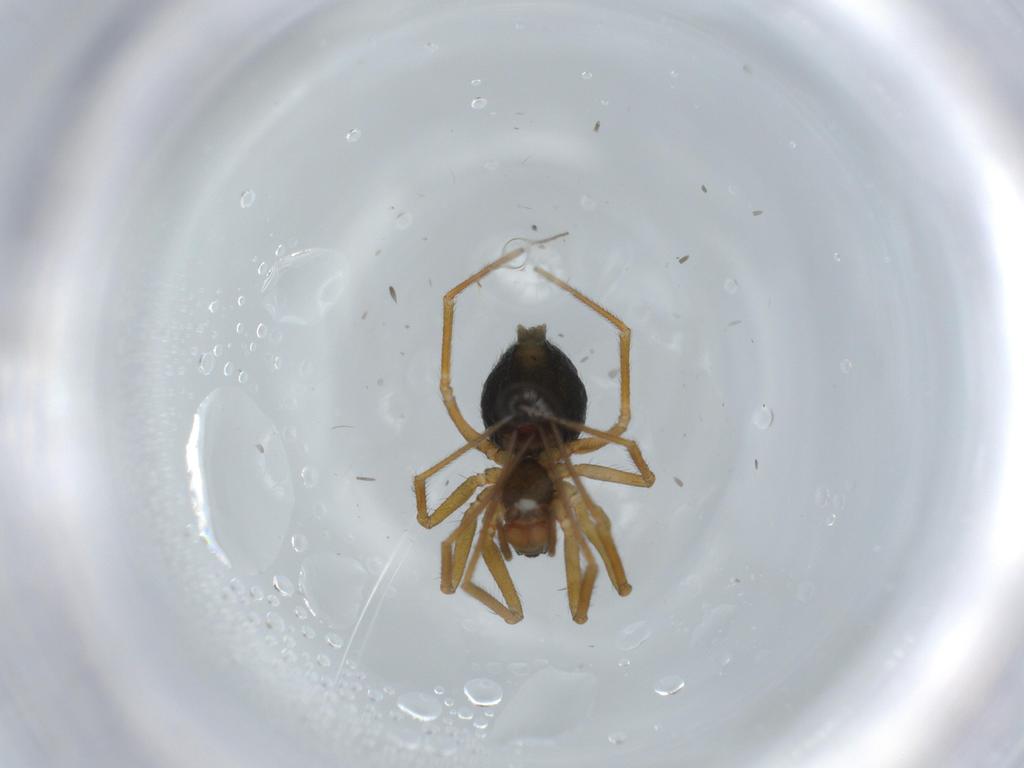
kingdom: Animalia
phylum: Arthropoda
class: Arachnida
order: Araneae
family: Linyphiidae
